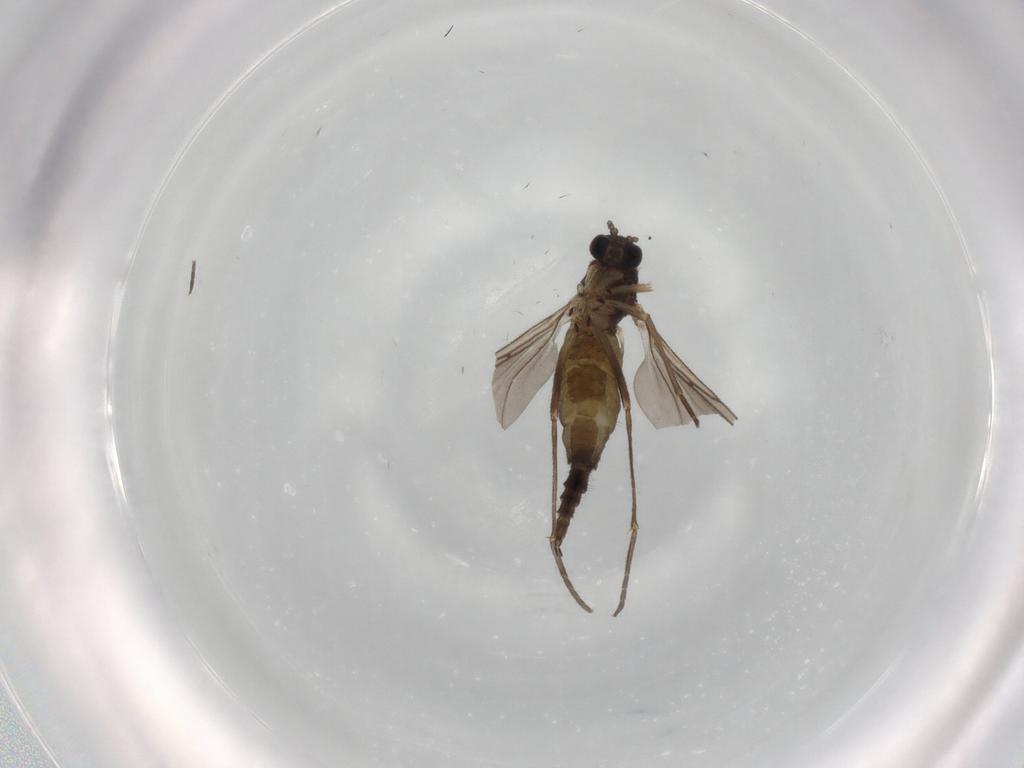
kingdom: Animalia
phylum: Arthropoda
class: Insecta
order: Diptera
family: Sciaridae
